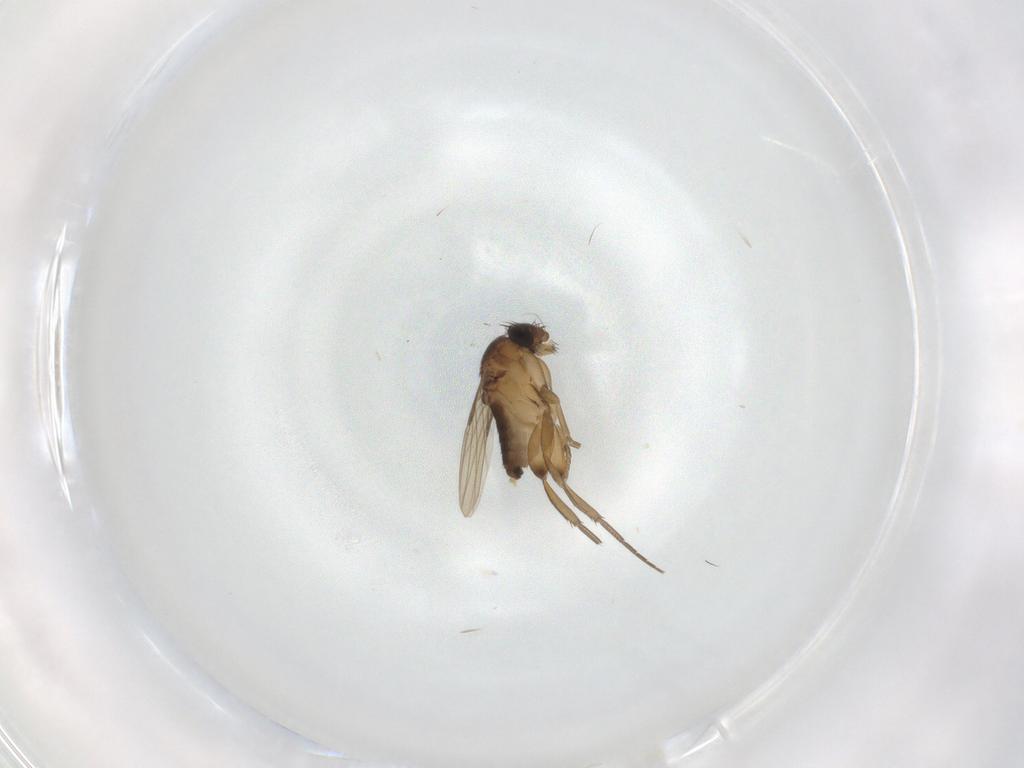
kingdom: Animalia
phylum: Arthropoda
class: Insecta
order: Diptera
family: Phoridae
